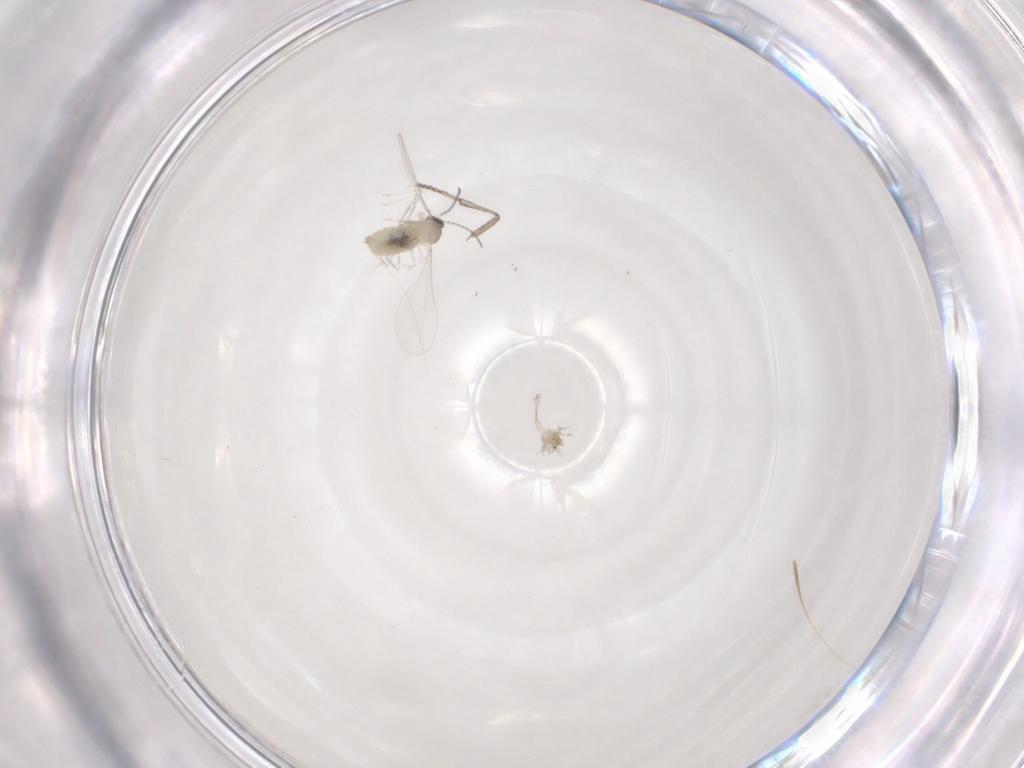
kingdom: Animalia
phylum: Arthropoda
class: Insecta
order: Diptera
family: Cecidomyiidae
